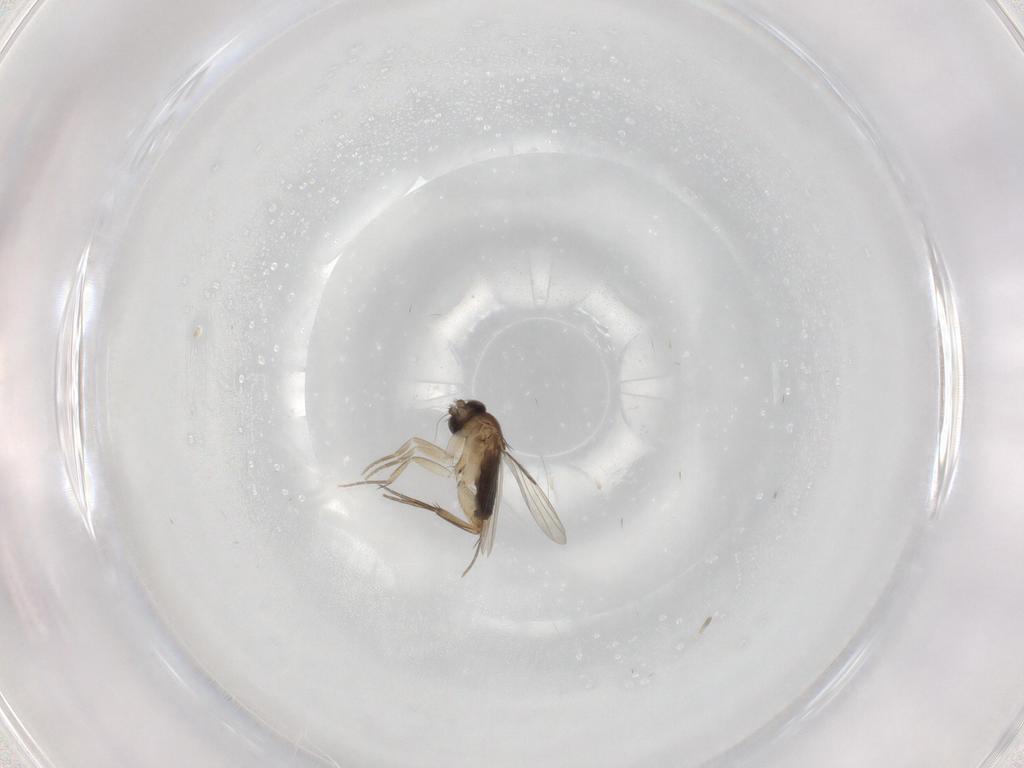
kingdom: Animalia
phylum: Arthropoda
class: Insecta
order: Diptera
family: Phoridae
